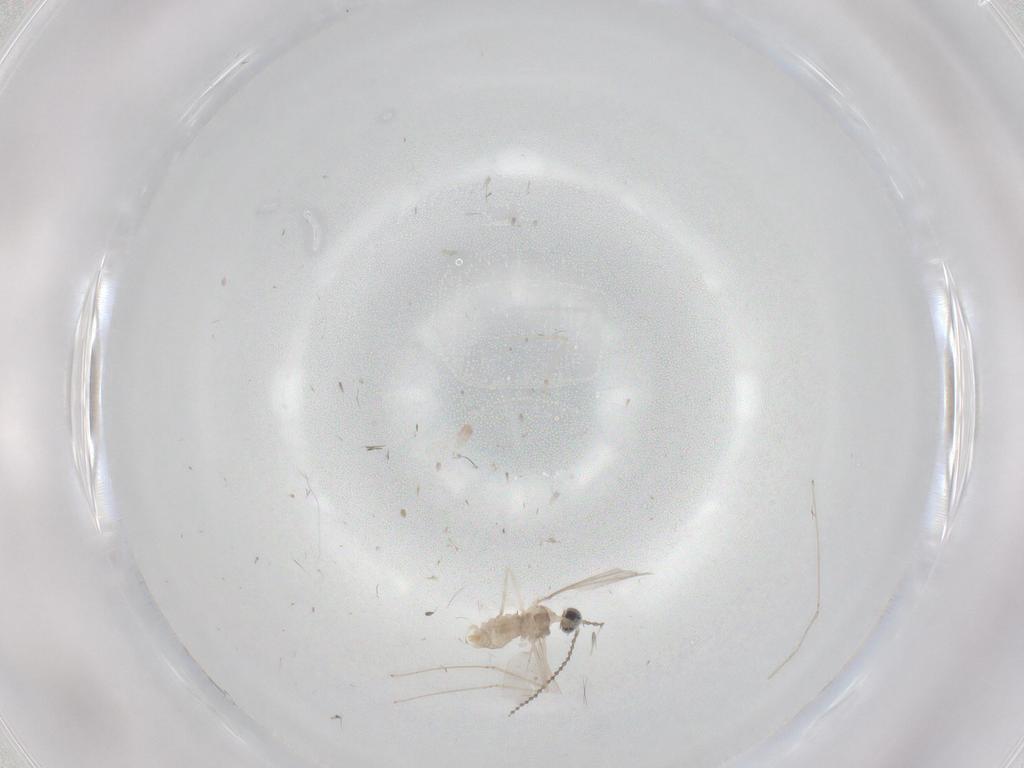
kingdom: Animalia
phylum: Arthropoda
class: Insecta
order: Diptera
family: Cecidomyiidae
